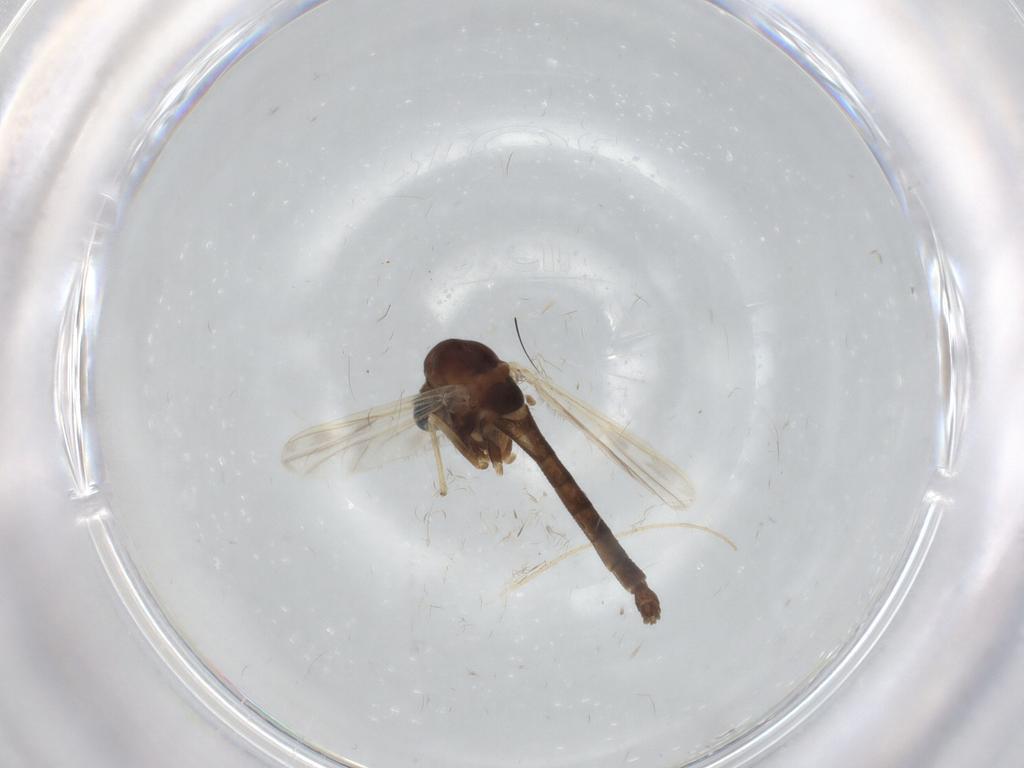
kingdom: Animalia
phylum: Arthropoda
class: Insecta
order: Diptera
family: Chironomidae
